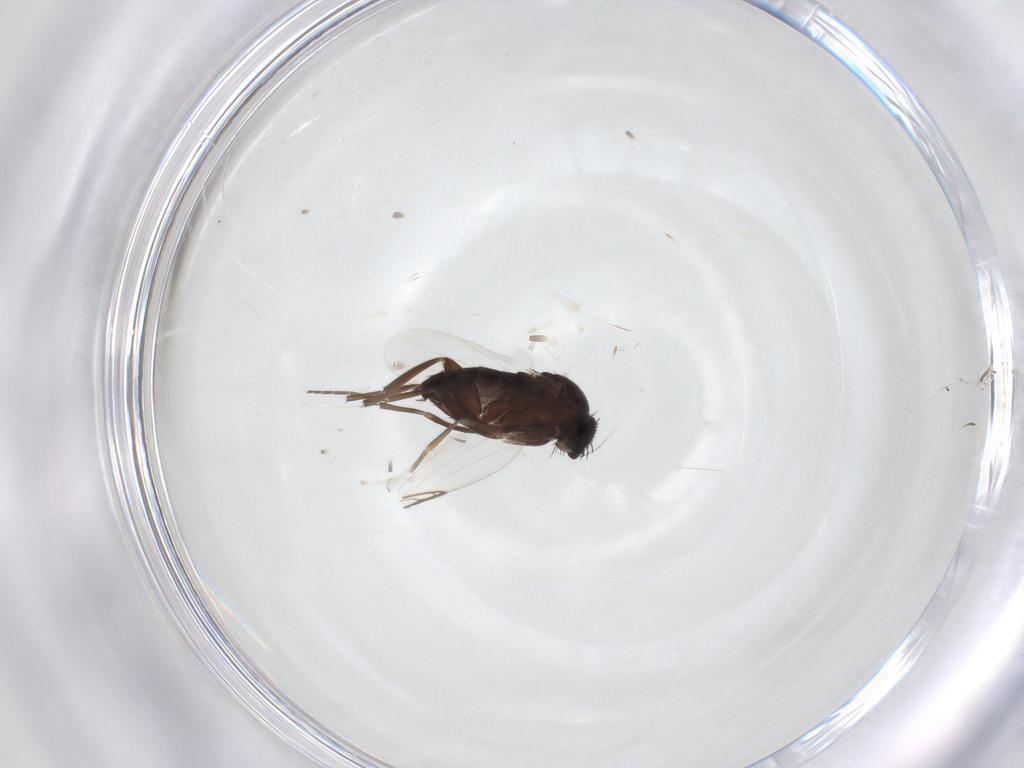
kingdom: Animalia
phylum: Arthropoda
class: Insecta
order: Diptera
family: Phoridae
